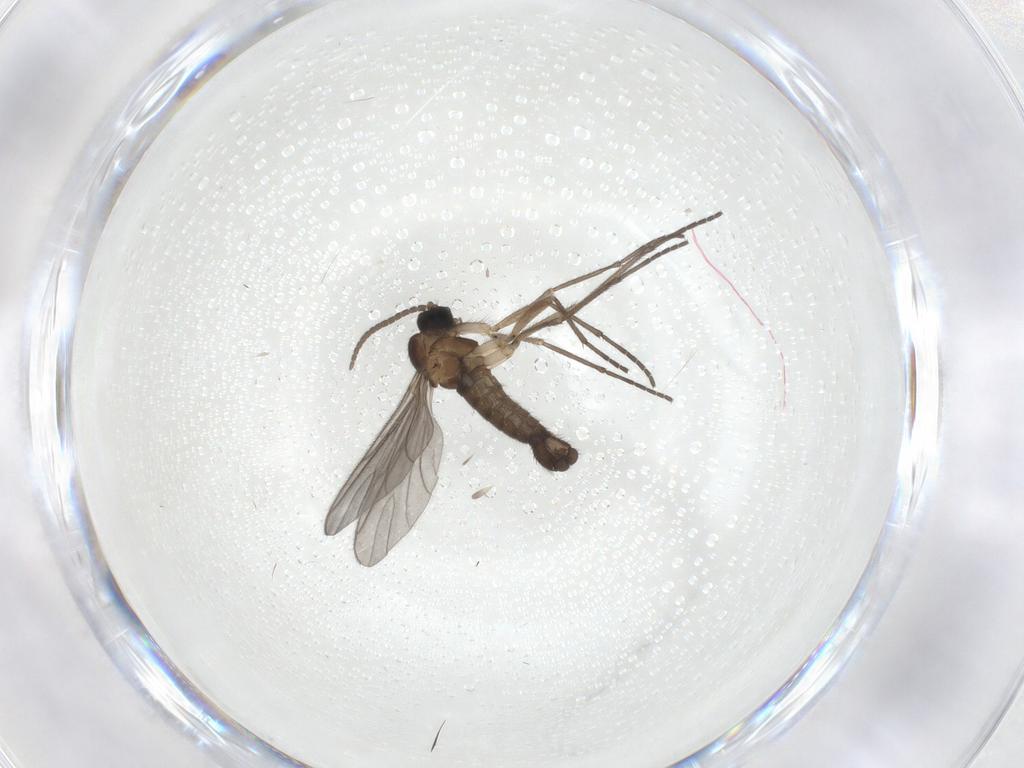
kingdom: Animalia
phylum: Arthropoda
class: Insecta
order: Diptera
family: Sciaridae
